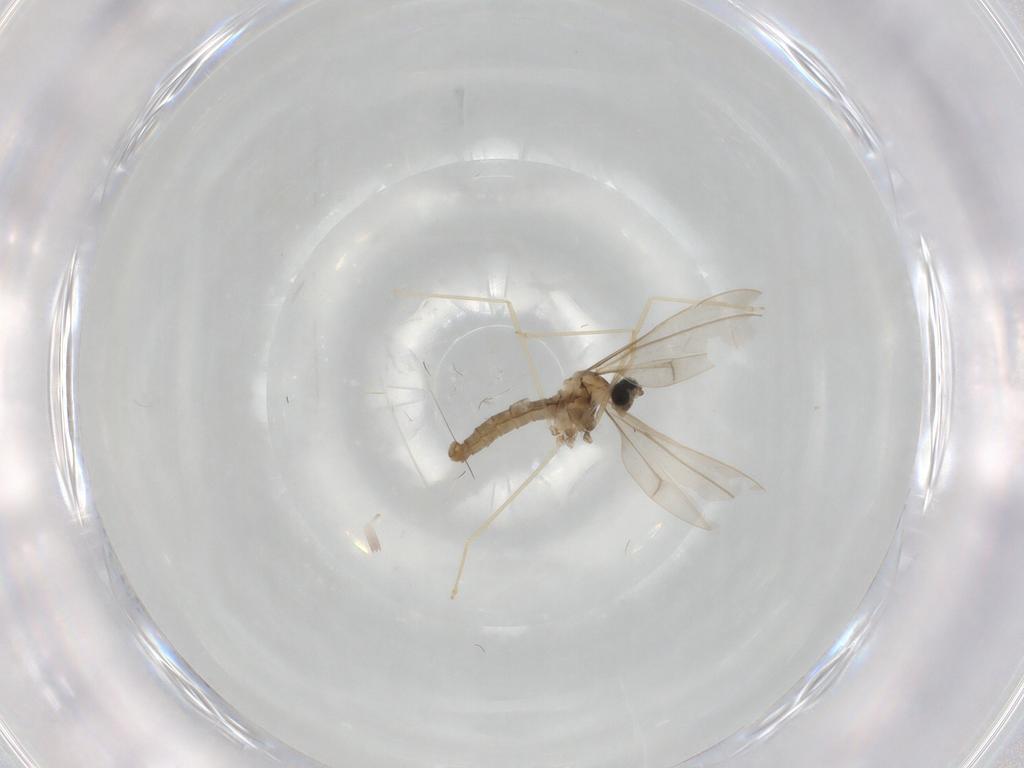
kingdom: Animalia
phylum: Arthropoda
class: Insecta
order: Diptera
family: Cecidomyiidae
